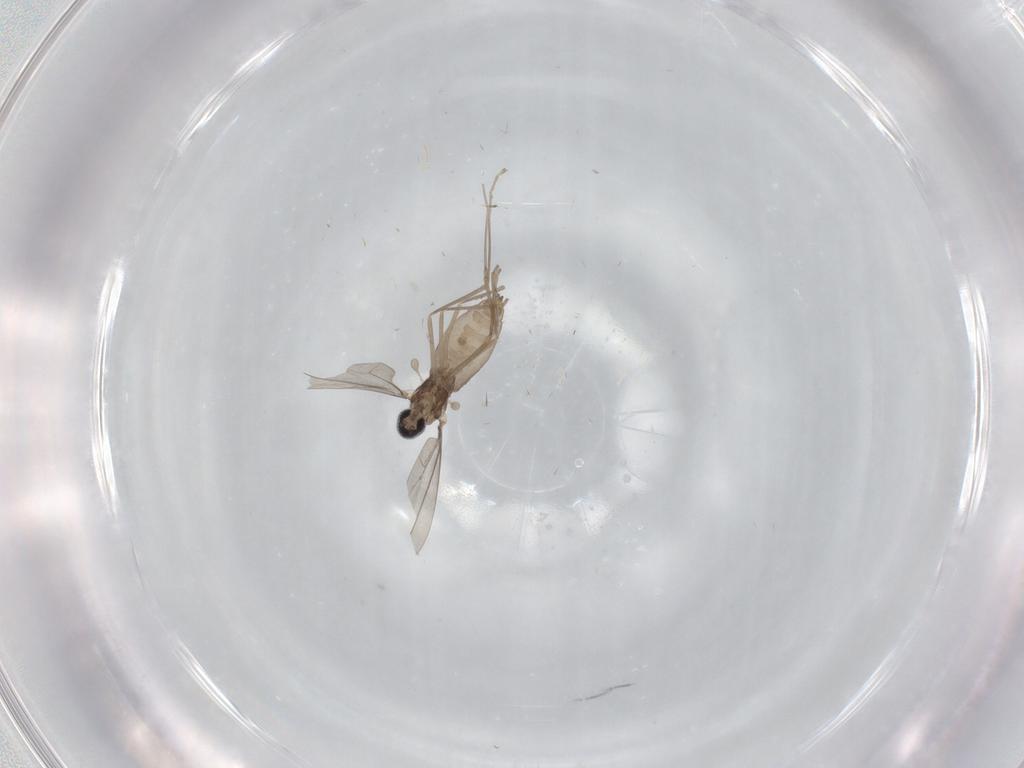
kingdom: Animalia
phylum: Arthropoda
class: Insecta
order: Diptera
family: Cecidomyiidae
